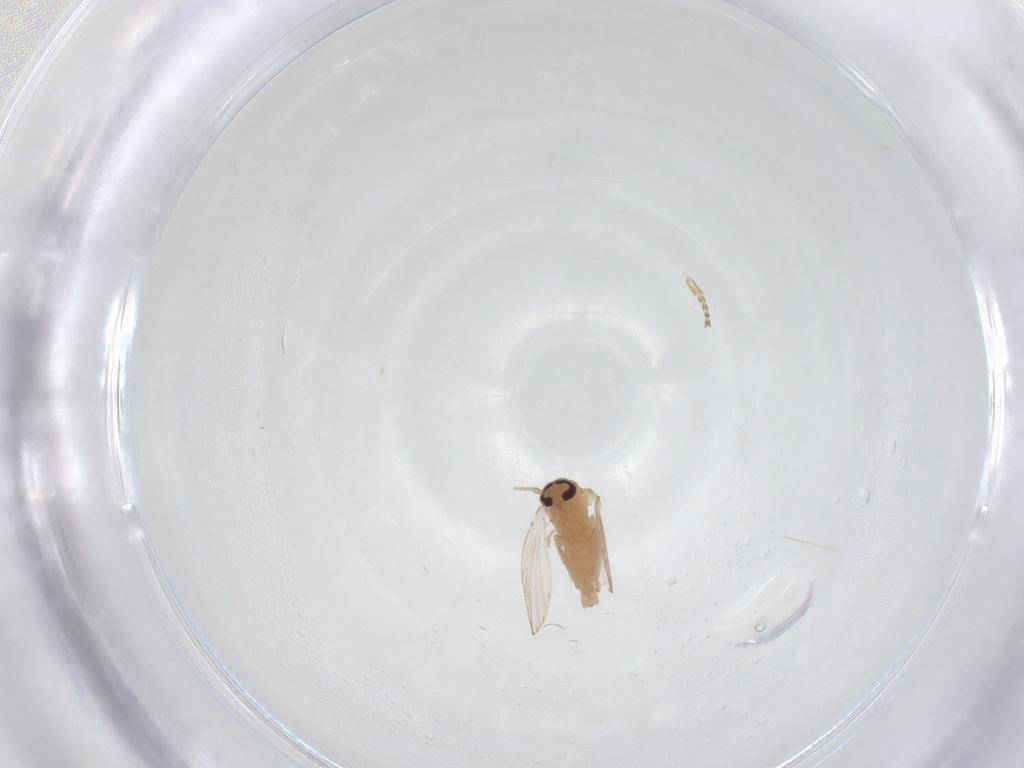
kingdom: Animalia
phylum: Arthropoda
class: Insecta
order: Diptera
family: Psychodidae
